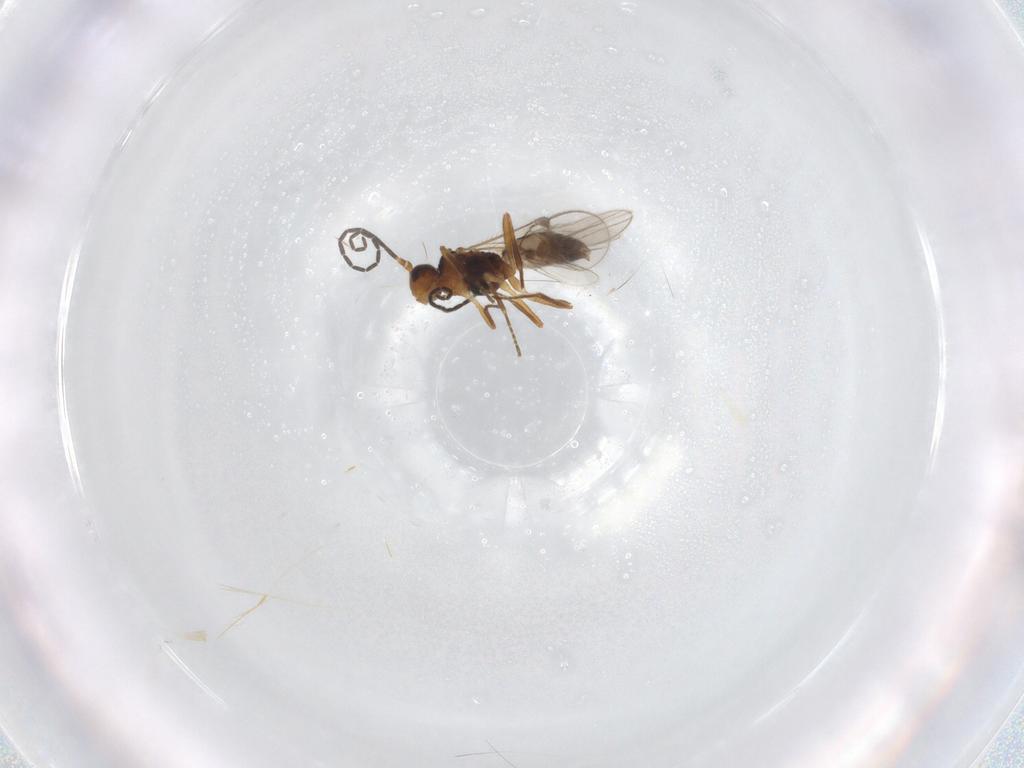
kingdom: Animalia
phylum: Arthropoda
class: Insecta
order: Hymenoptera
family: Braconidae
